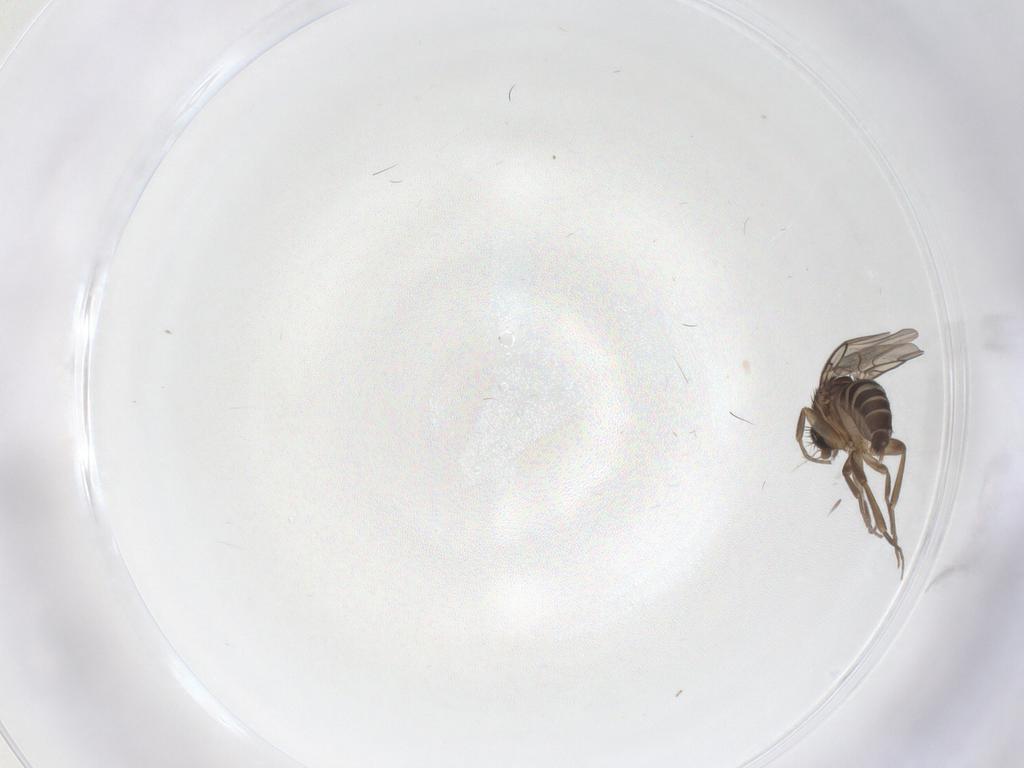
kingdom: Animalia
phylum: Arthropoda
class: Insecta
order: Diptera
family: Phoridae
